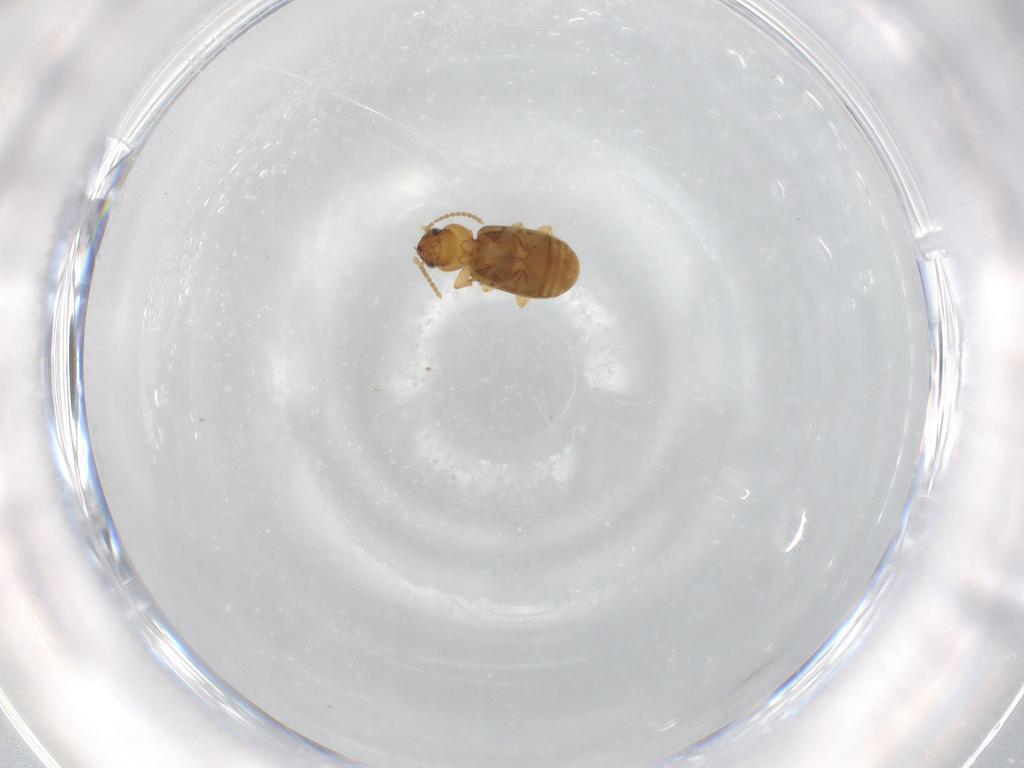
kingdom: Animalia
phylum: Arthropoda
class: Insecta
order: Coleoptera
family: Carabidae
